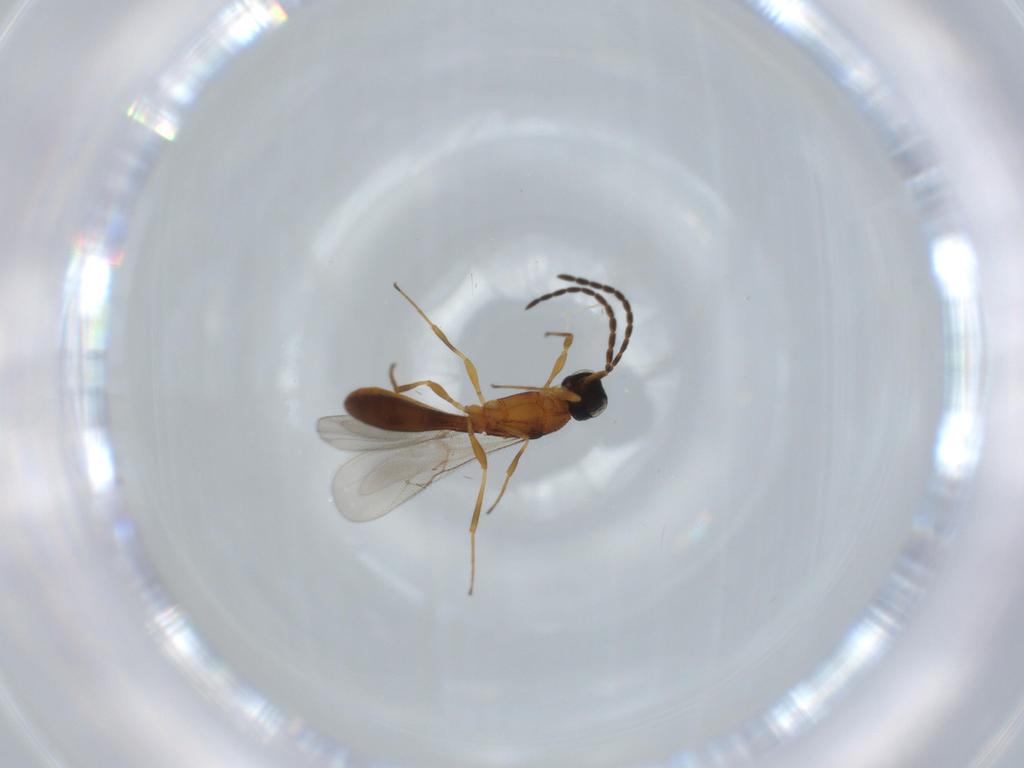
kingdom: Animalia
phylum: Arthropoda
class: Insecta
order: Hymenoptera
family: Scelionidae
